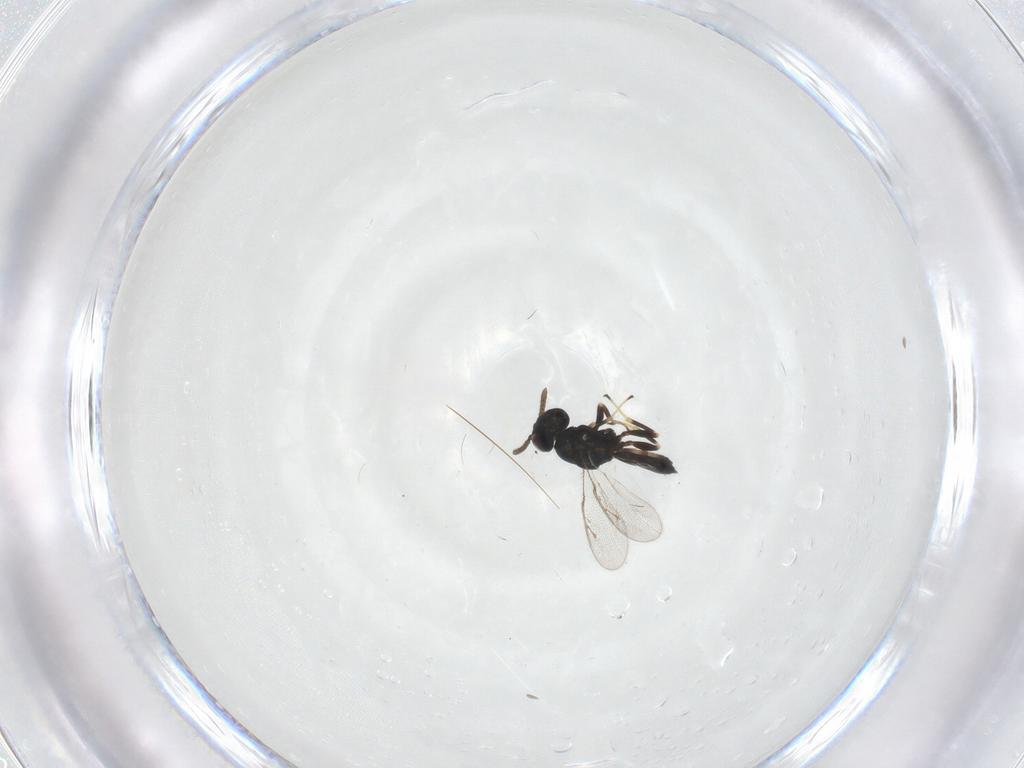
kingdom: Animalia
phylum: Arthropoda
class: Insecta
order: Hymenoptera
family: Pteromalidae
